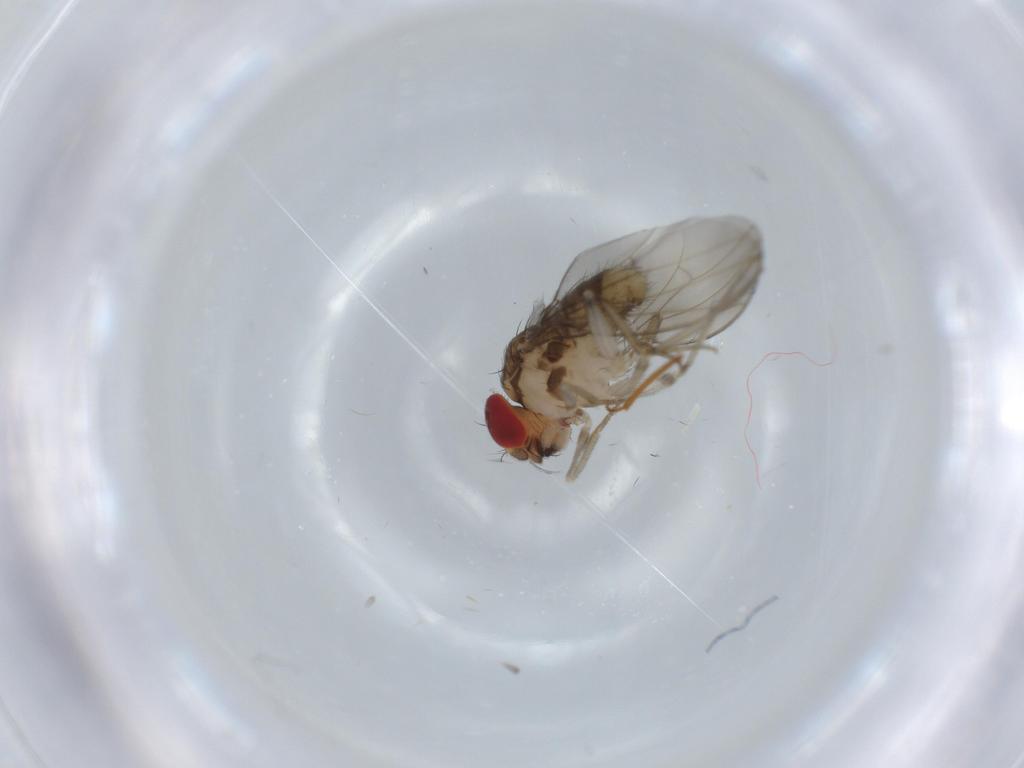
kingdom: Animalia
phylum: Arthropoda
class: Insecta
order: Diptera
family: Drosophilidae
